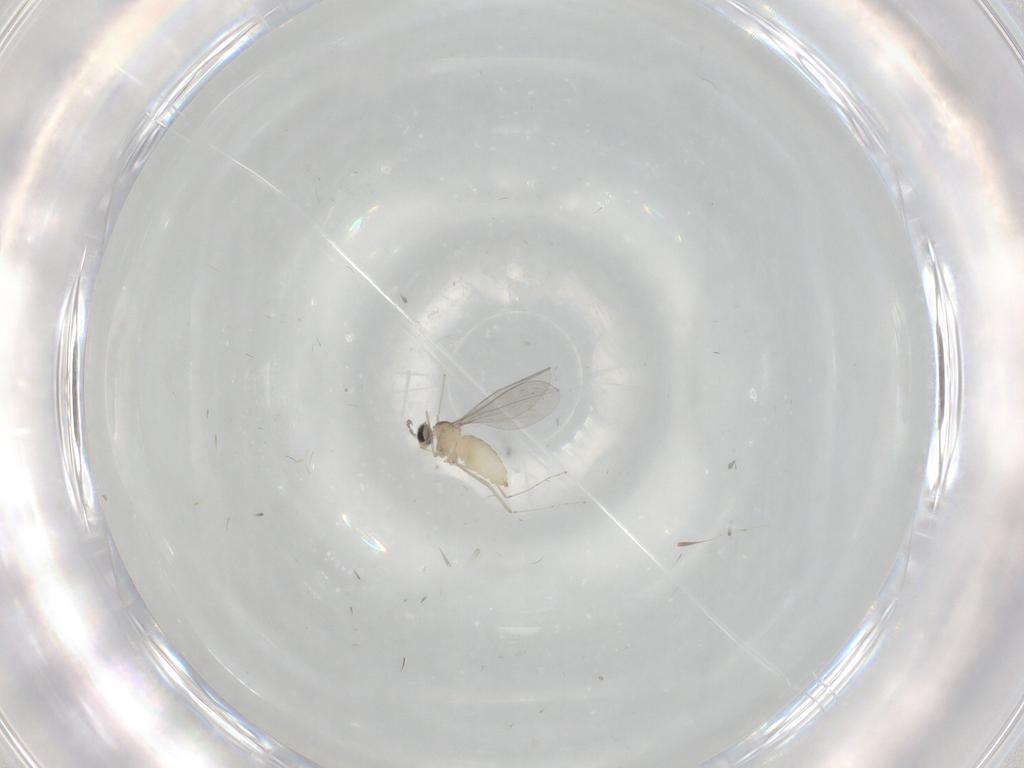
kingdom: Animalia
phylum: Arthropoda
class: Insecta
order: Diptera
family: Cecidomyiidae
